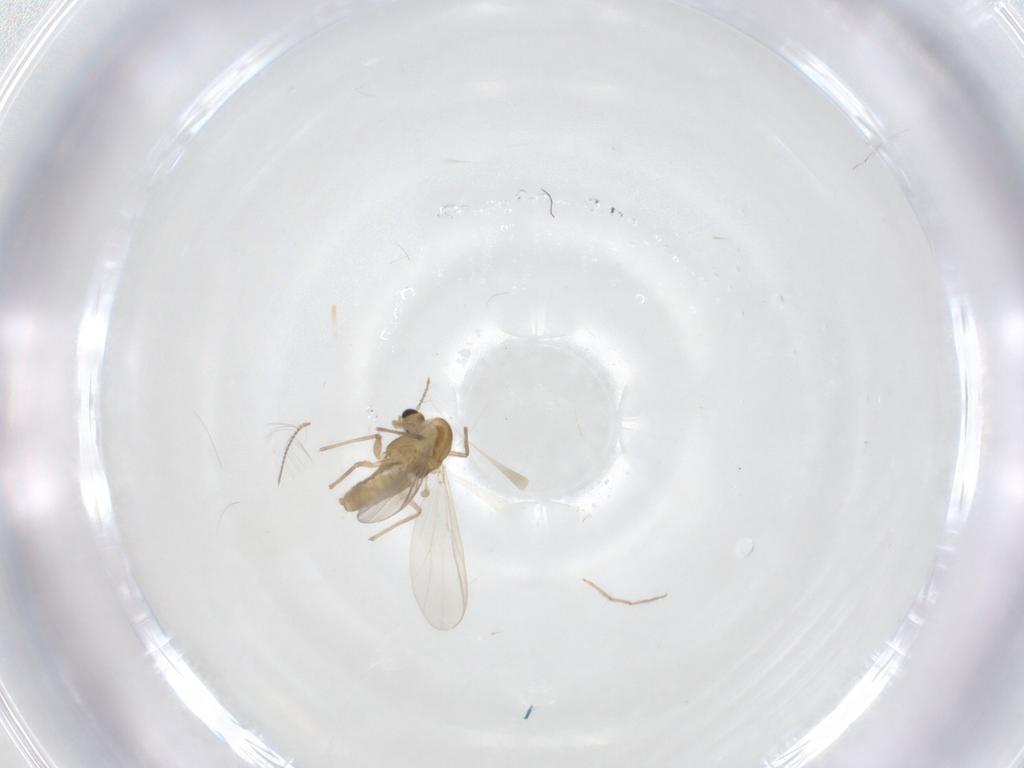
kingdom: Animalia
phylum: Arthropoda
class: Insecta
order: Diptera
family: Chironomidae
